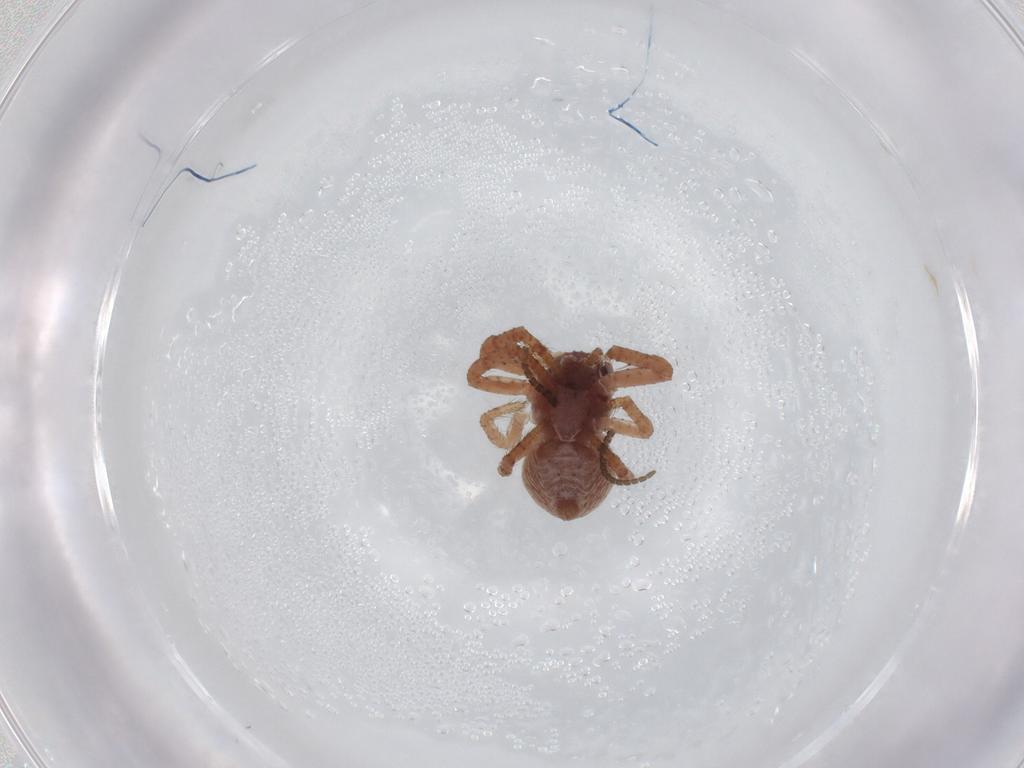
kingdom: Animalia
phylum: Arthropoda
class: Arachnida
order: Araneae
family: Thomisidae
